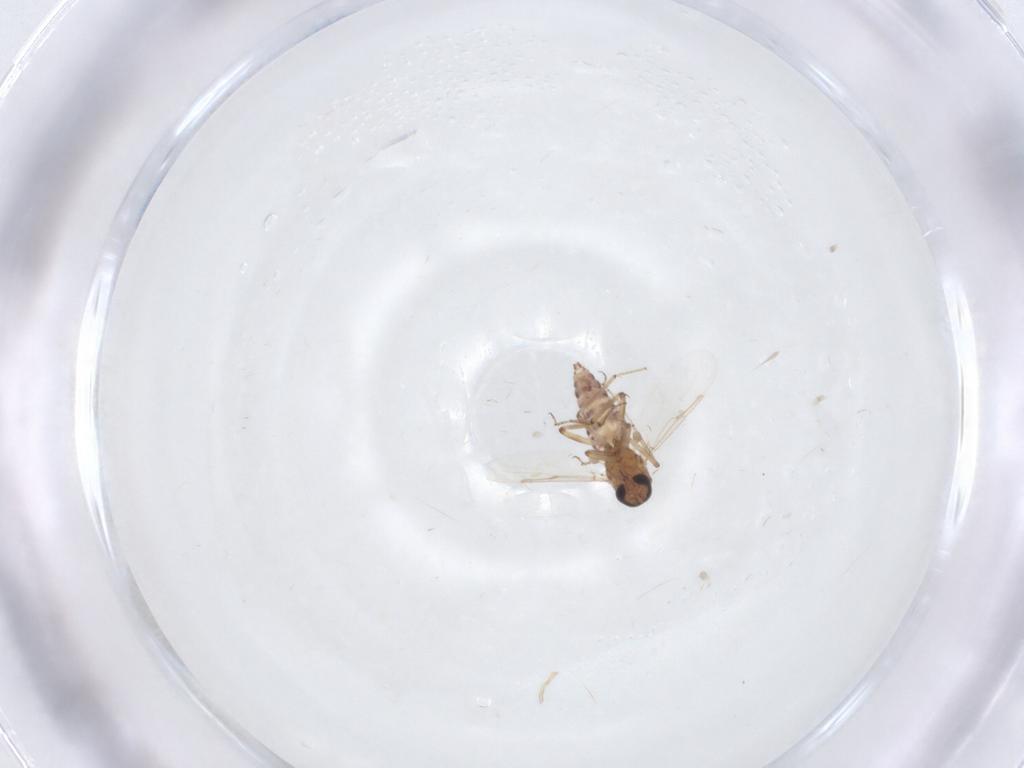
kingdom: Animalia
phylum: Arthropoda
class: Insecta
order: Diptera
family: Ceratopogonidae
